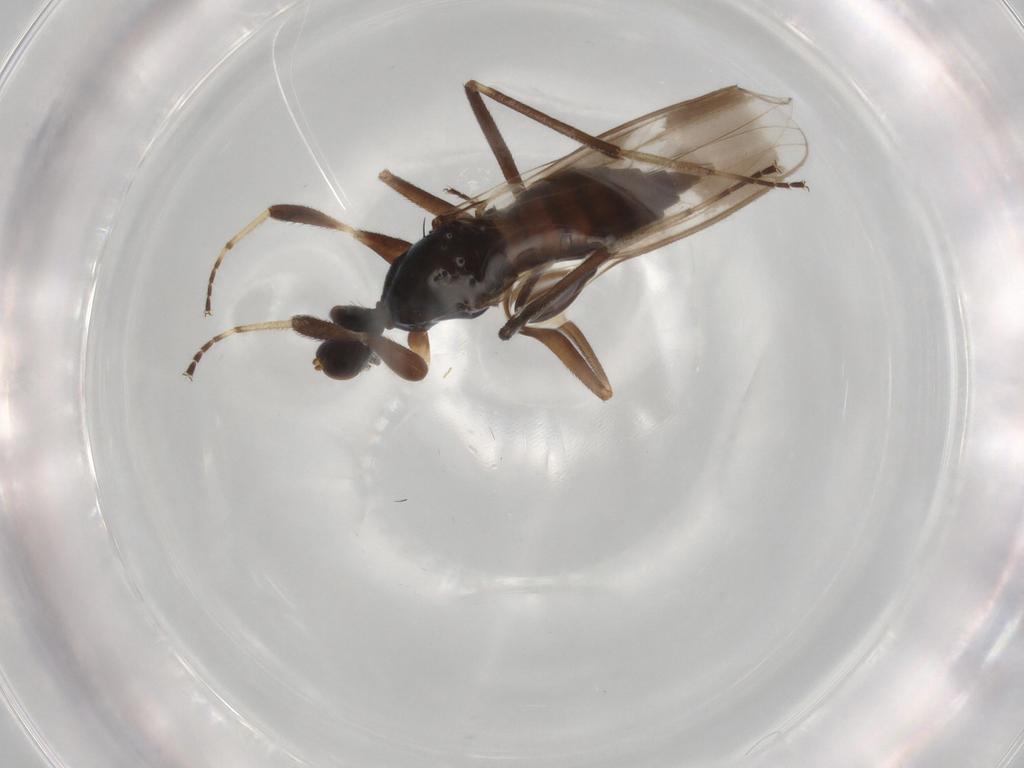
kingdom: Animalia
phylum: Arthropoda
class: Insecta
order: Diptera
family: Hybotidae
